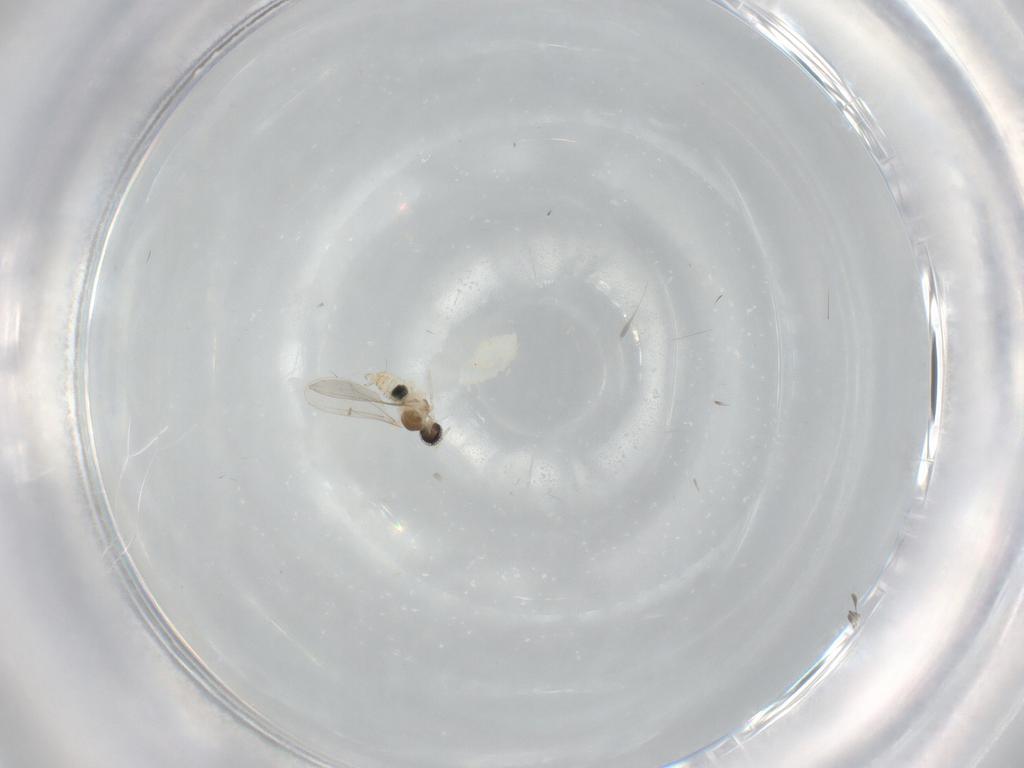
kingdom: Animalia
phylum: Arthropoda
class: Insecta
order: Diptera
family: Cecidomyiidae
